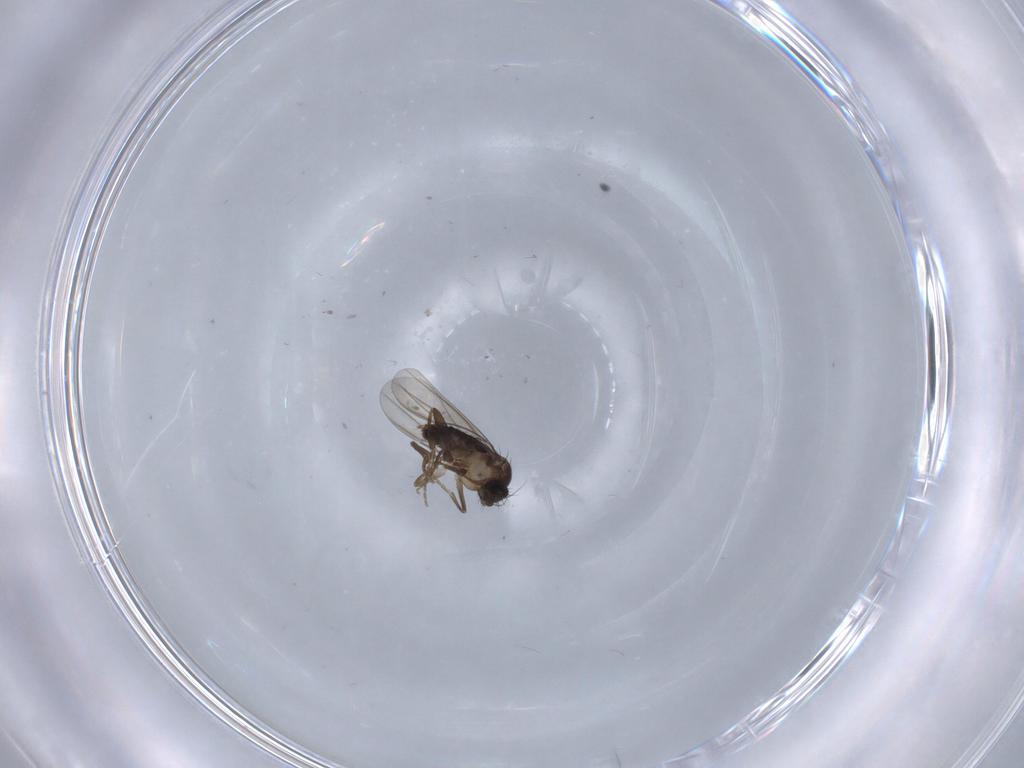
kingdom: Animalia
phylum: Arthropoda
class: Insecta
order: Diptera
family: Phoridae
